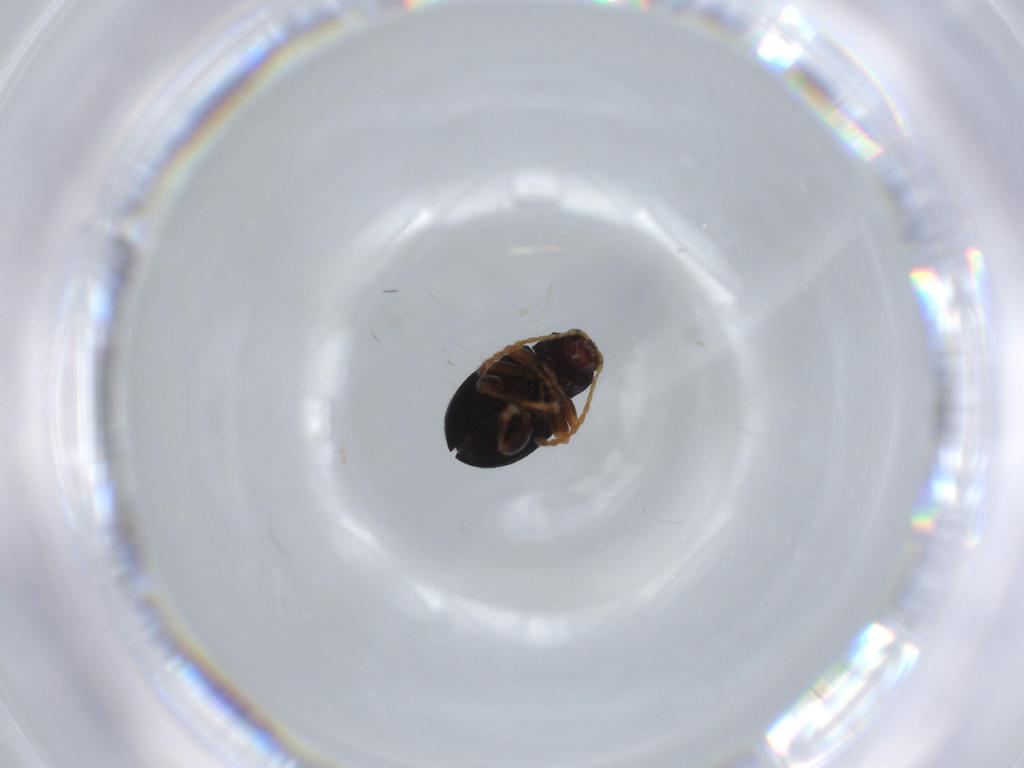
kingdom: Animalia
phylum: Arthropoda
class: Insecta
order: Coleoptera
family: Chrysomelidae
